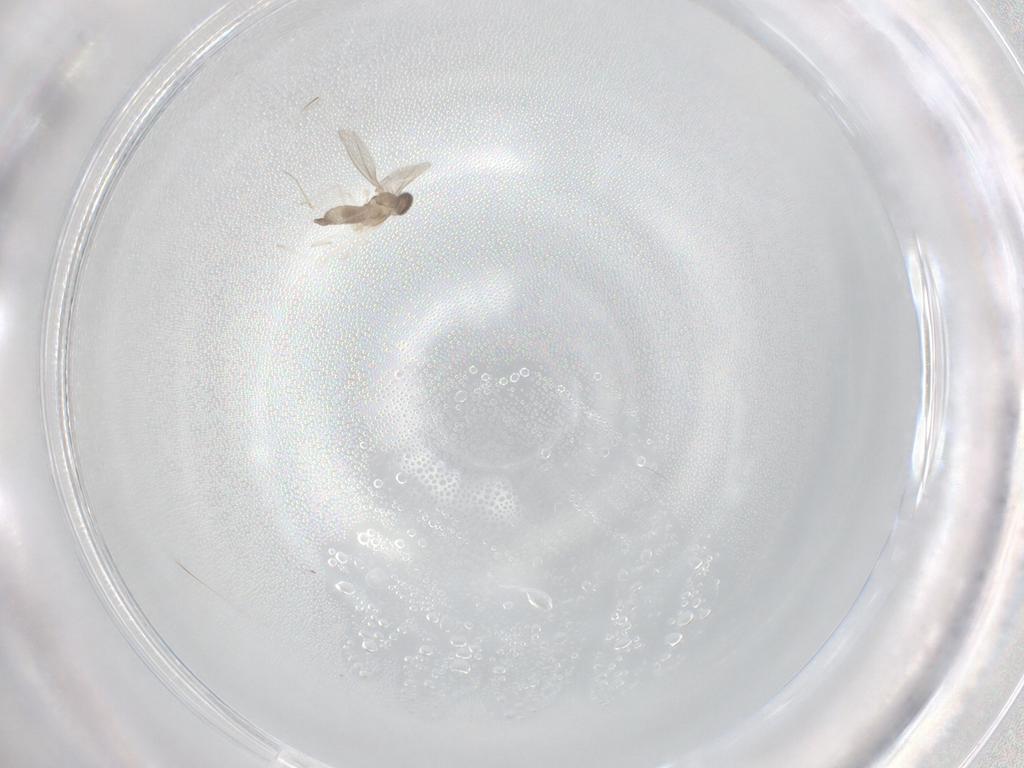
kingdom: Animalia
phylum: Arthropoda
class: Insecta
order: Diptera
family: Cecidomyiidae
